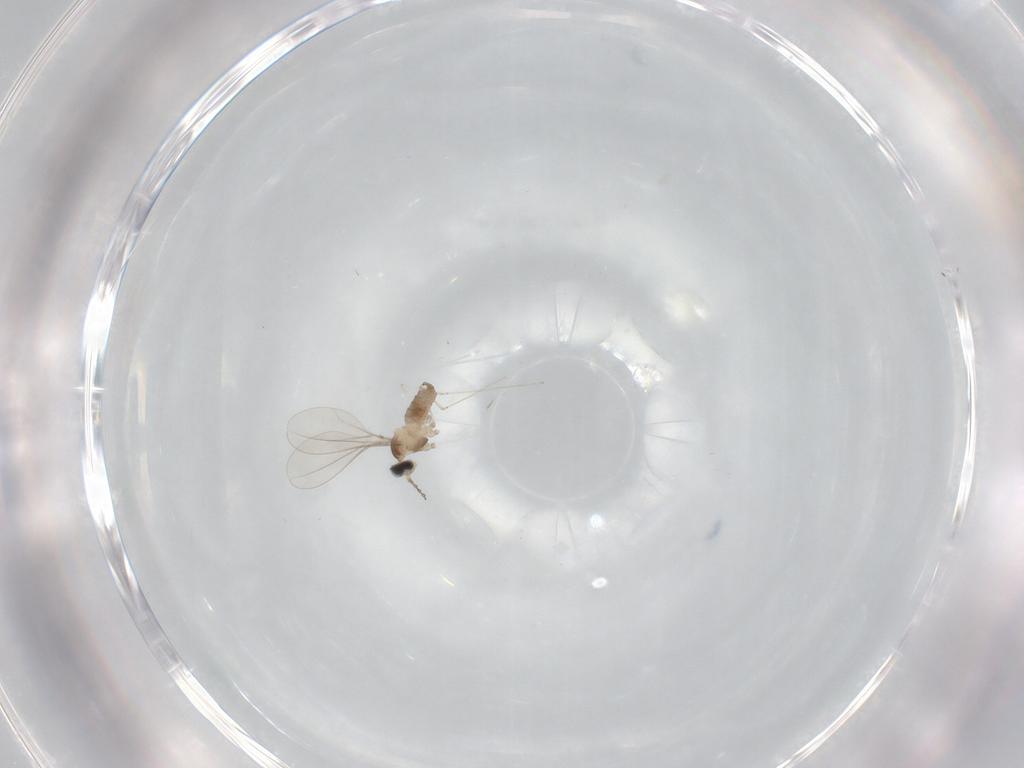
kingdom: Animalia
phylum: Arthropoda
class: Insecta
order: Diptera
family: Cecidomyiidae
